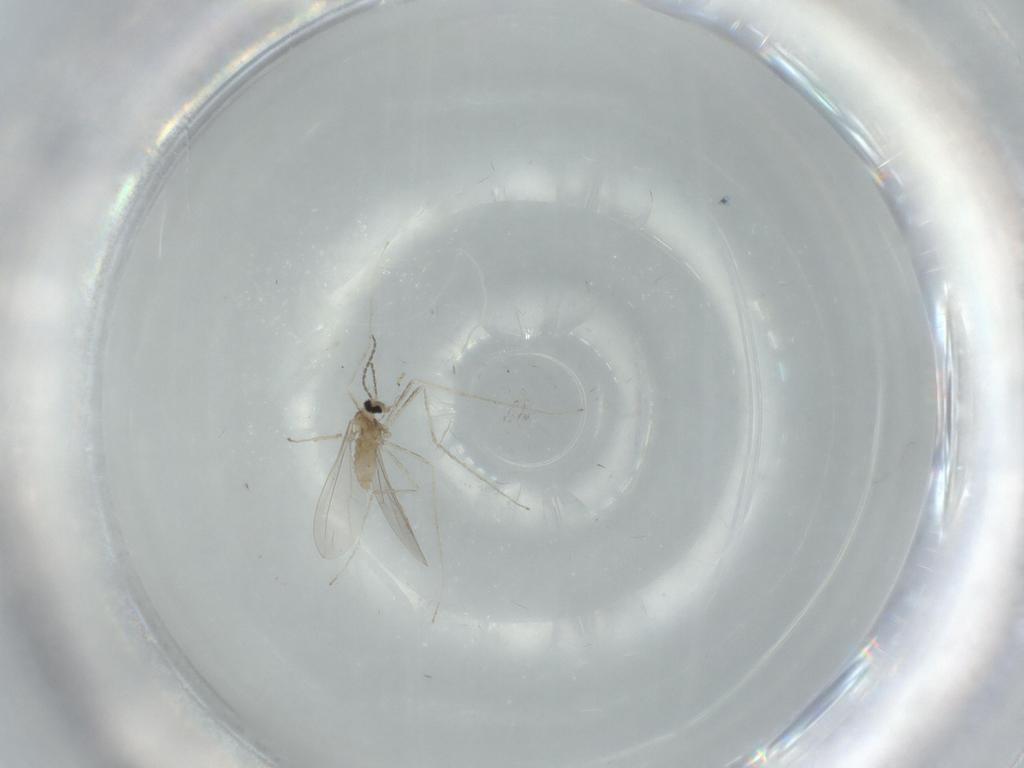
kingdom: Animalia
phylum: Arthropoda
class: Insecta
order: Diptera
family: Cecidomyiidae
